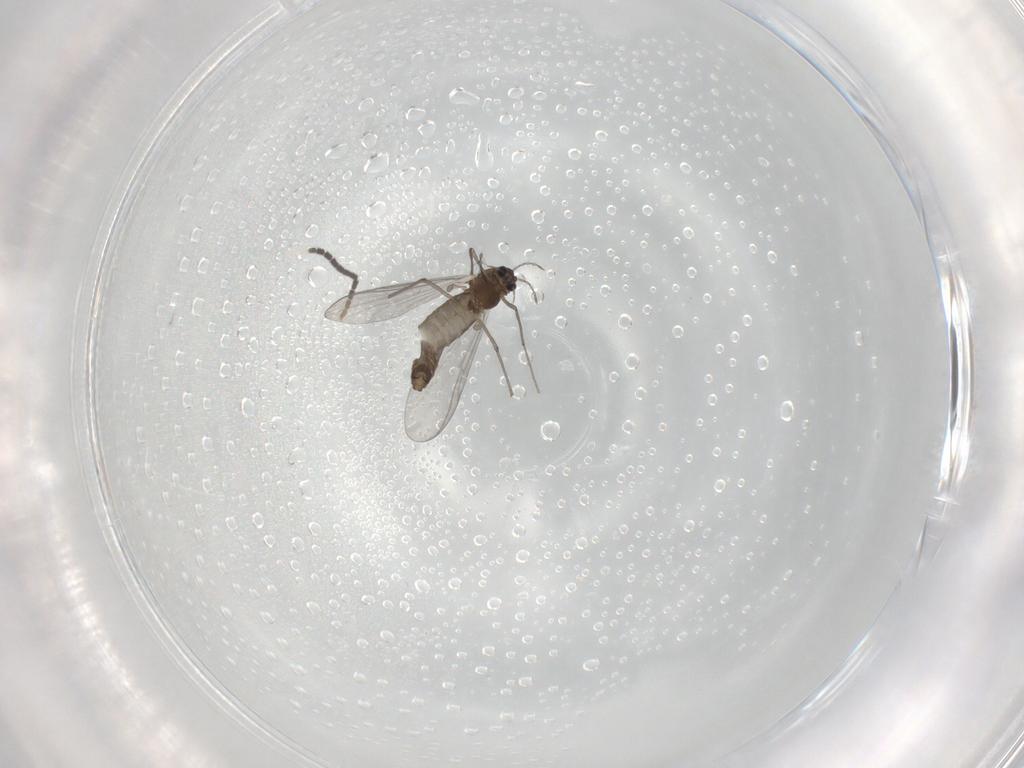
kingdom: Animalia
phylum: Arthropoda
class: Insecta
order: Diptera
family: Chironomidae
